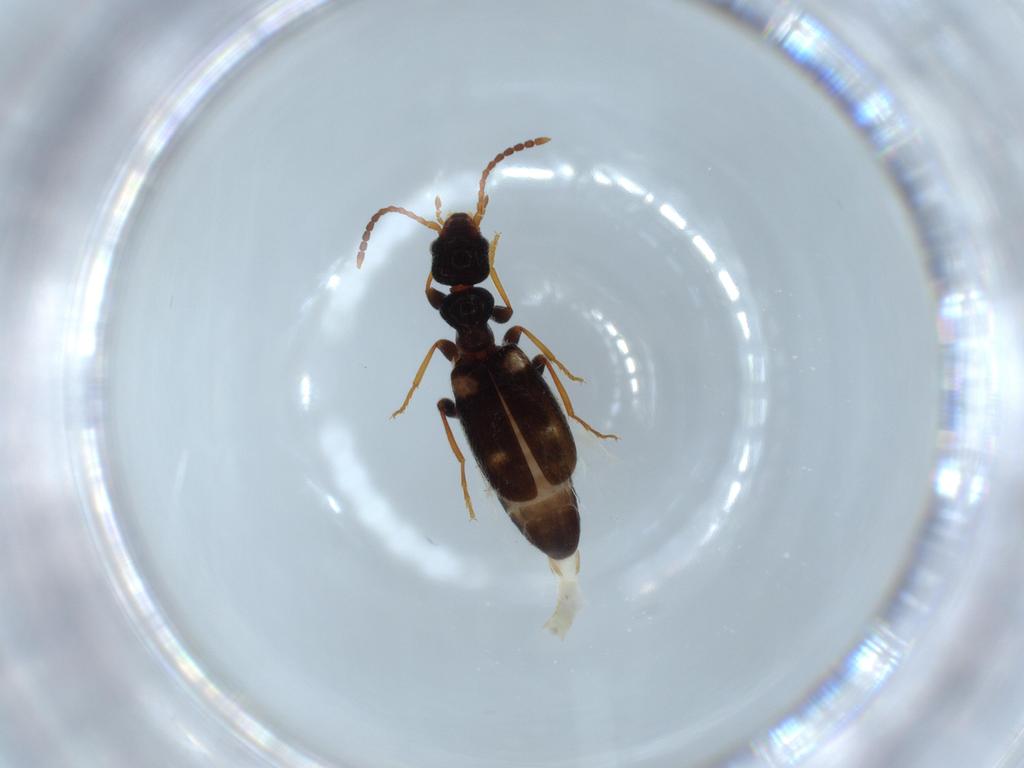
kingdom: Animalia
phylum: Arthropoda
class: Insecta
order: Coleoptera
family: Anthicidae
